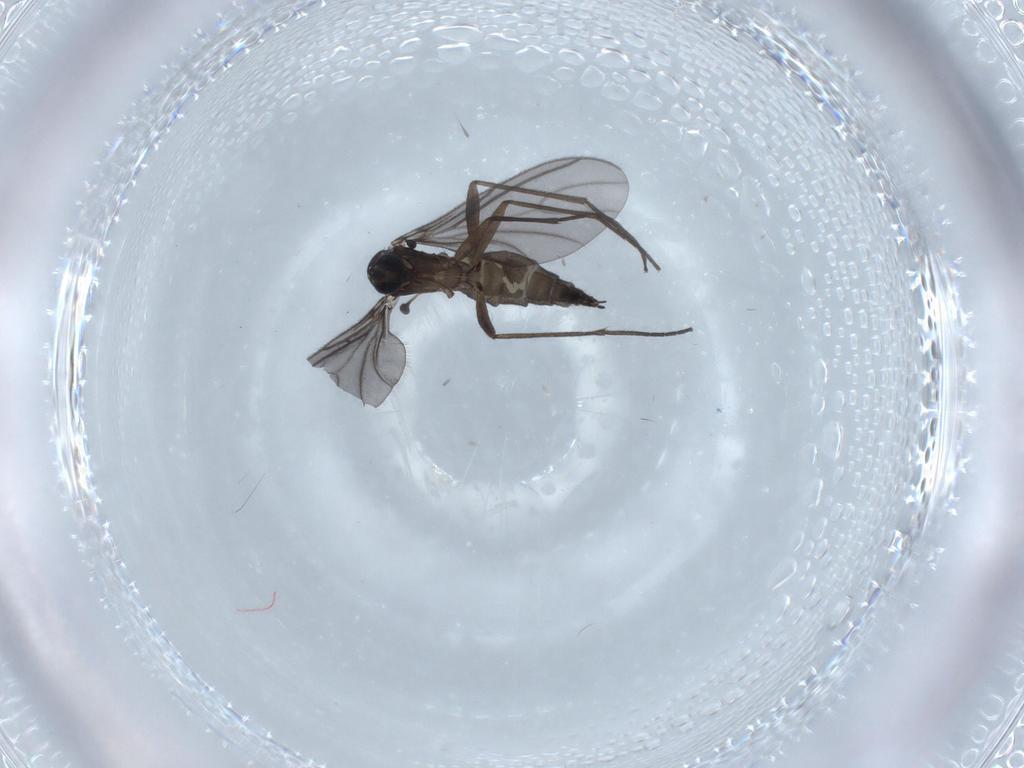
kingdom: Animalia
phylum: Arthropoda
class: Insecta
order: Diptera
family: Sciaridae
